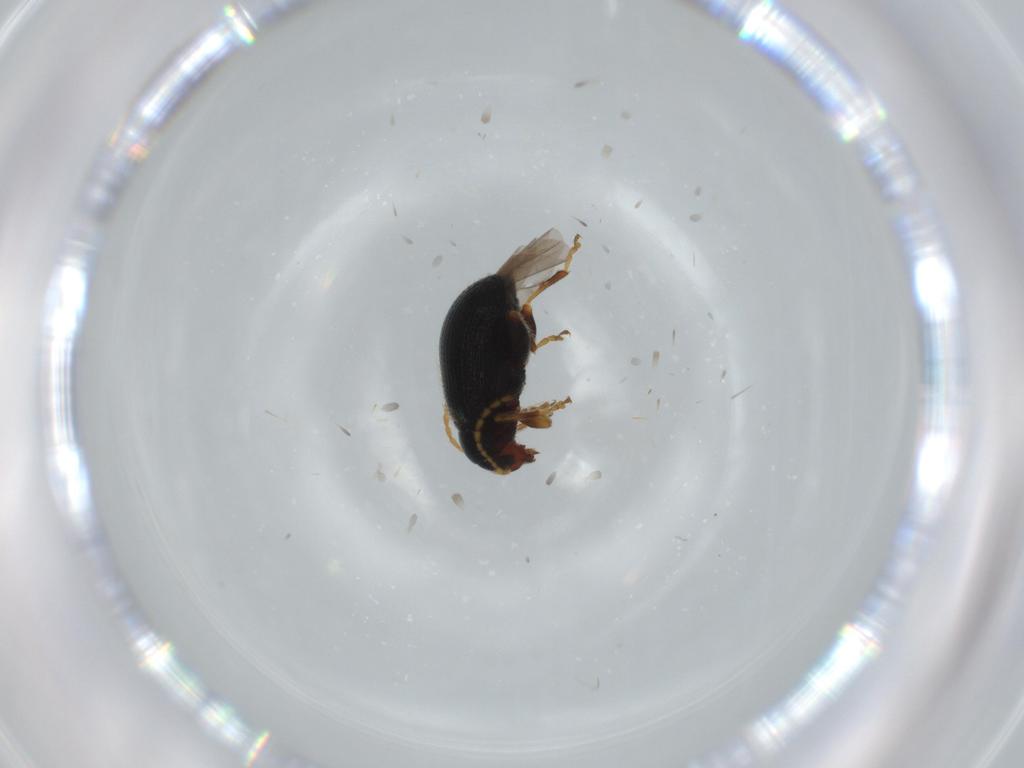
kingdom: Animalia
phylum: Arthropoda
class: Insecta
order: Coleoptera
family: Chrysomelidae
